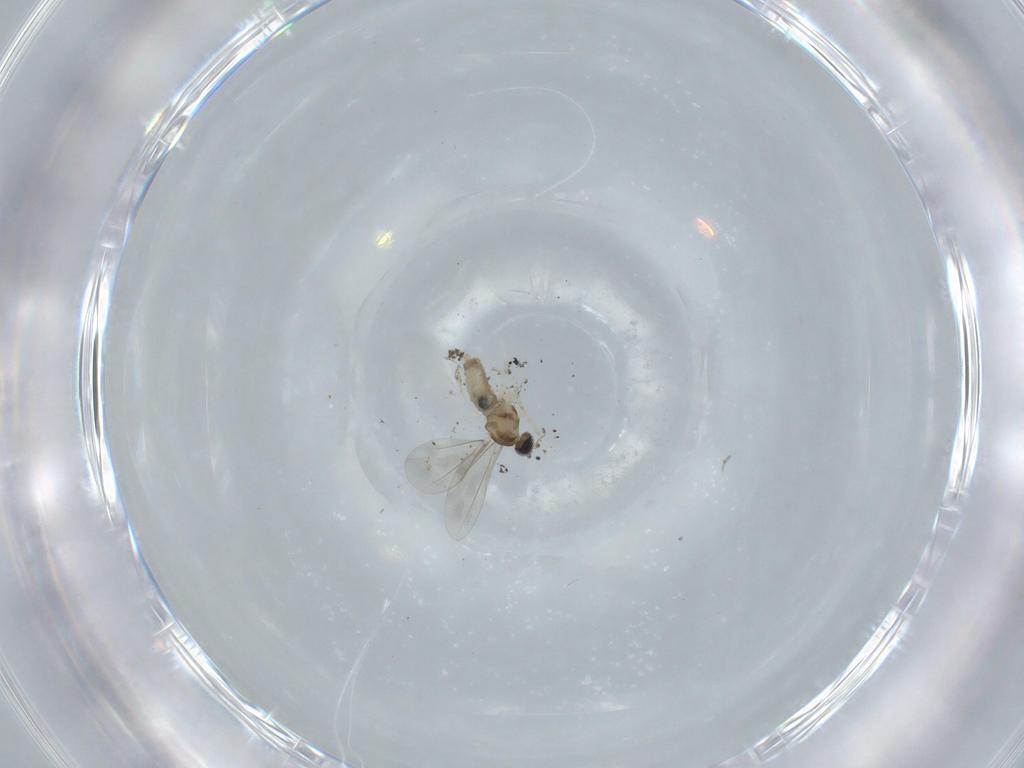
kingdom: Animalia
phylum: Arthropoda
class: Insecta
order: Diptera
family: Cecidomyiidae
